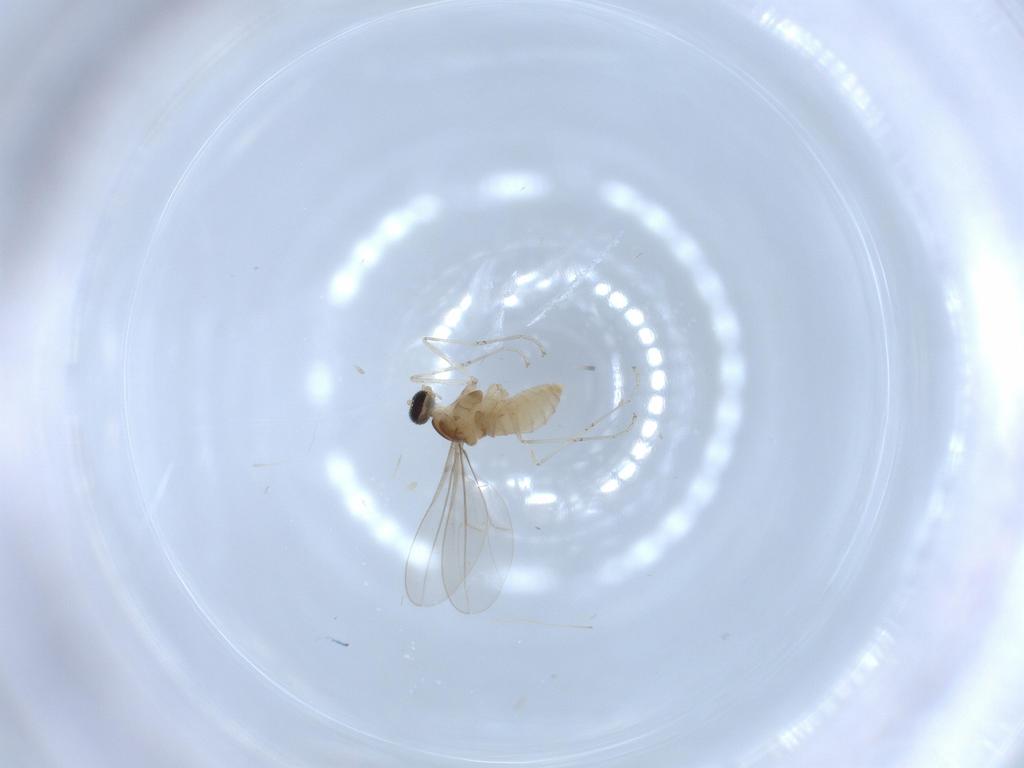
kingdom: Animalia
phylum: Arthropoda
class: Insecta
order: Diptera
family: Cecidomyiidae
